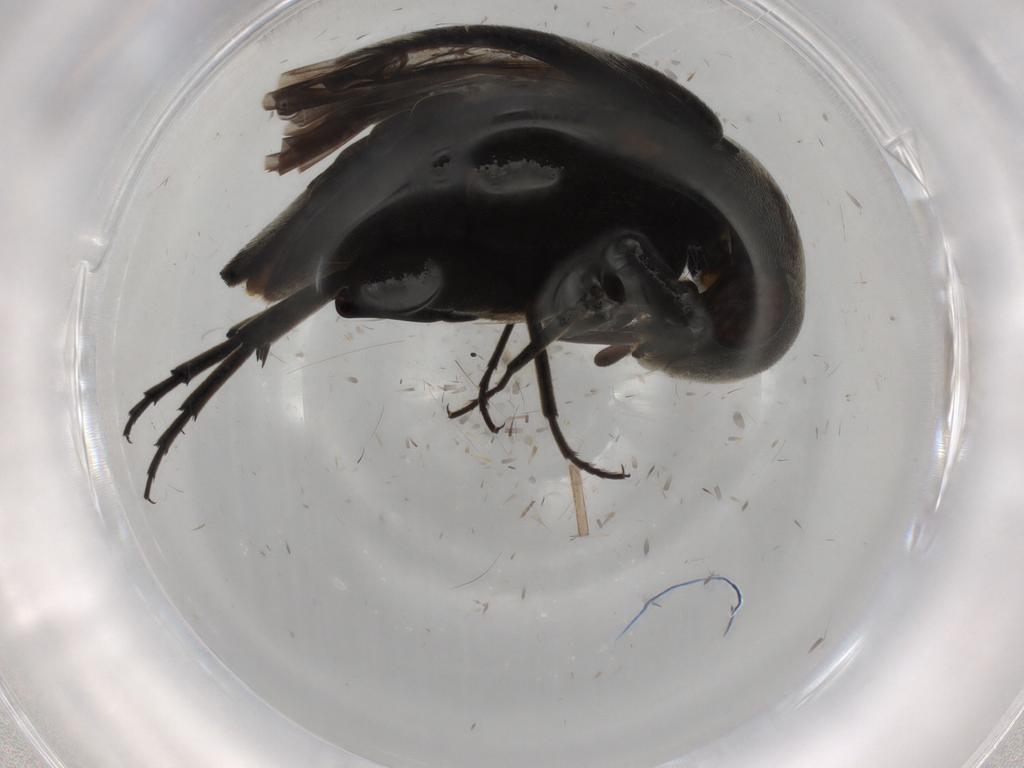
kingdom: Animalia
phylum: Arthropoda
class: Insecta
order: Coleoptera
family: Mordellidae
